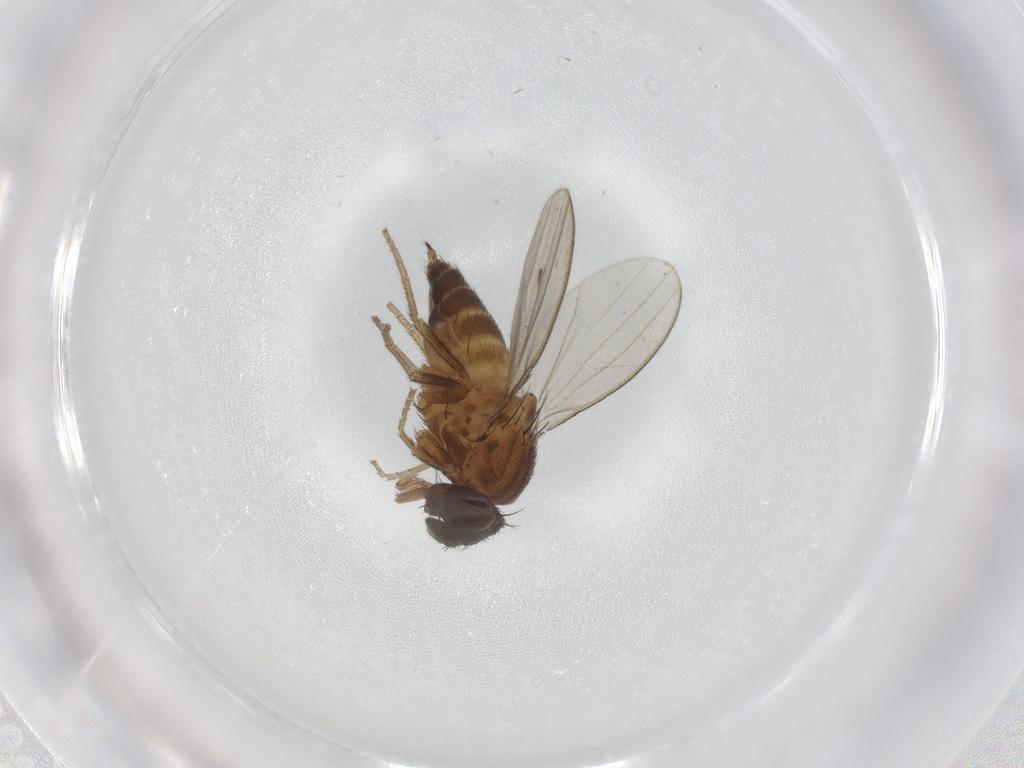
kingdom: Animalia
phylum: Arthropoda
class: Insecta
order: Diptera
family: Milichiidae
